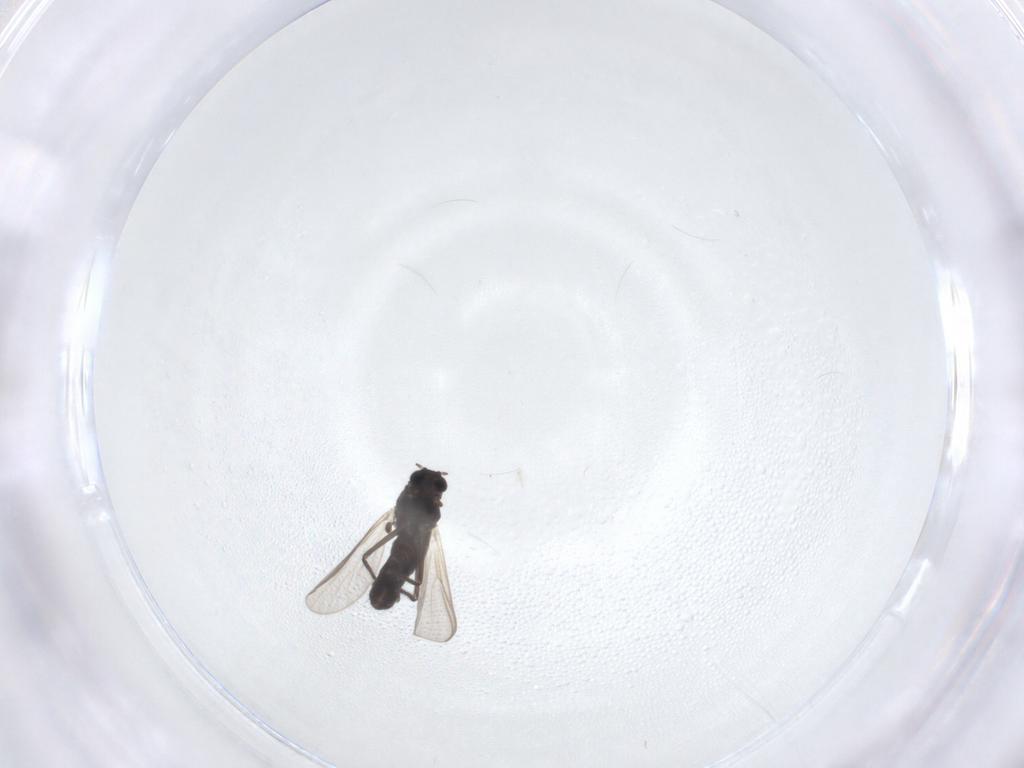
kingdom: Animalia
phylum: Arthropoda
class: Insecta
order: Diptera
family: Chironomidae
